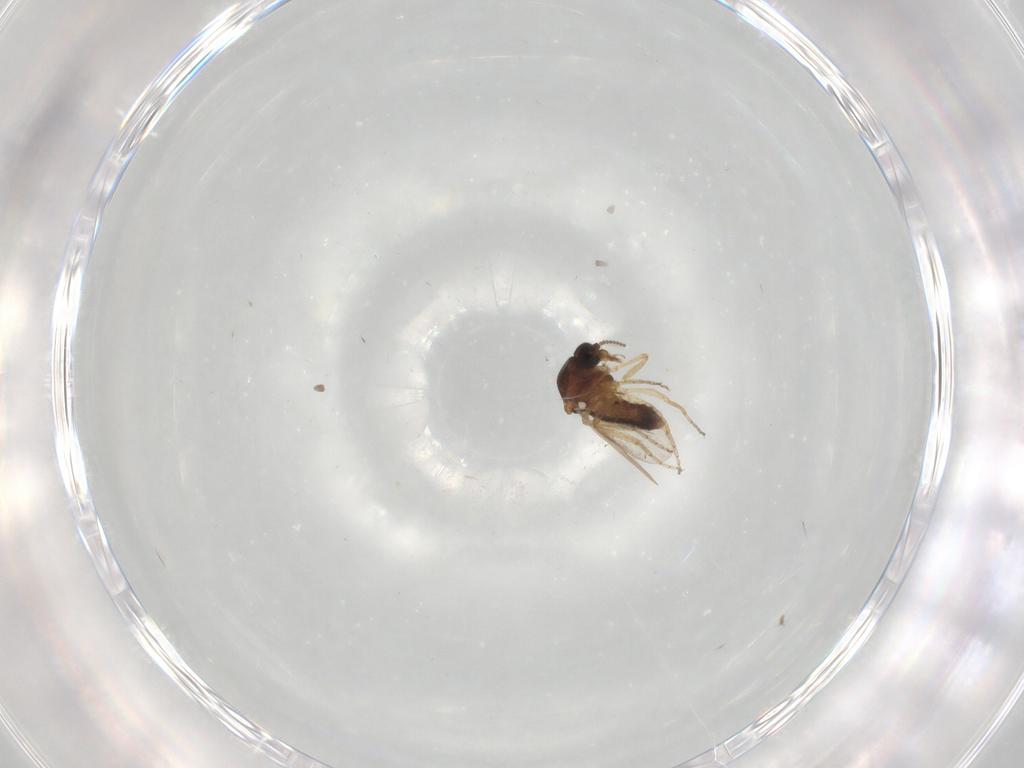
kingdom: Animalia
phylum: Arthropoda
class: Insecta
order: Diptera
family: Ceratopogonidae
